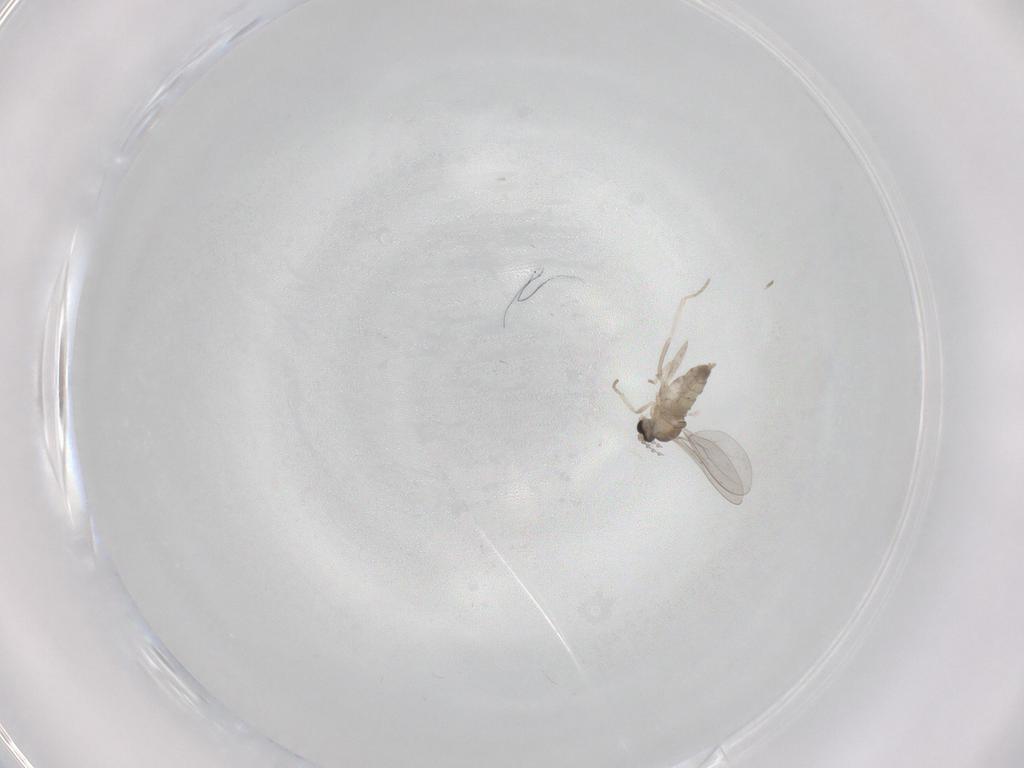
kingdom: Animalia
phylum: Arthropoda
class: Insecta
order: Diptera
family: Cecidomyiidae
